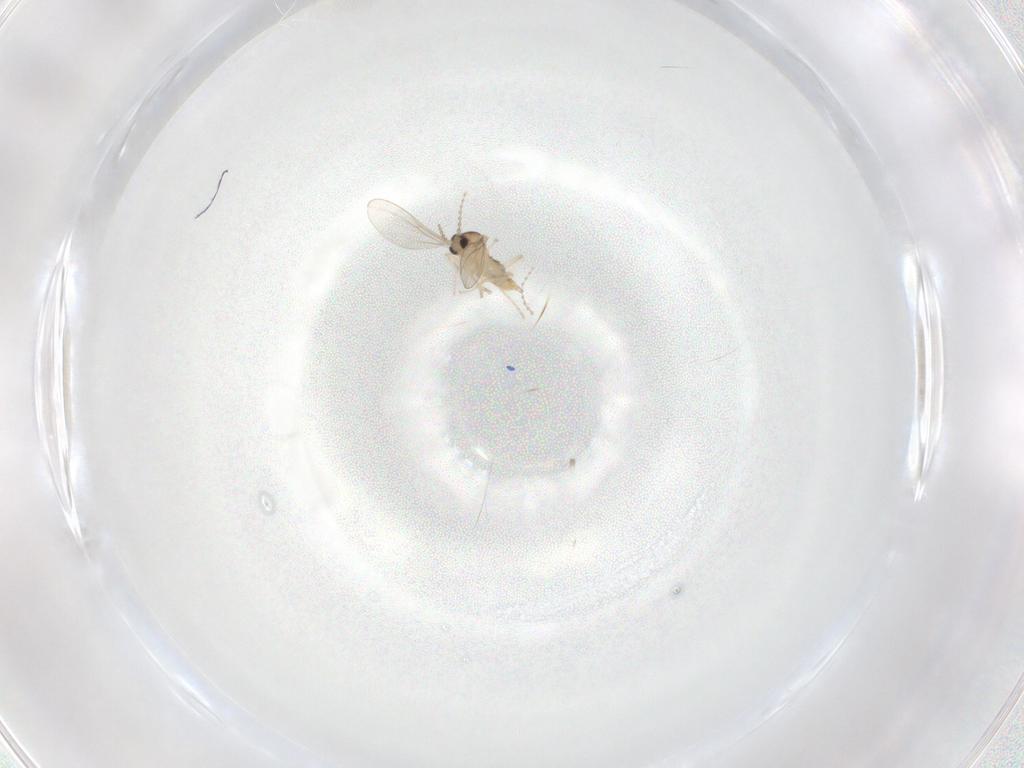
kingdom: Animalia
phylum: Arthropoda
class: Insecta
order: Diptera
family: Cecidomyiidae
